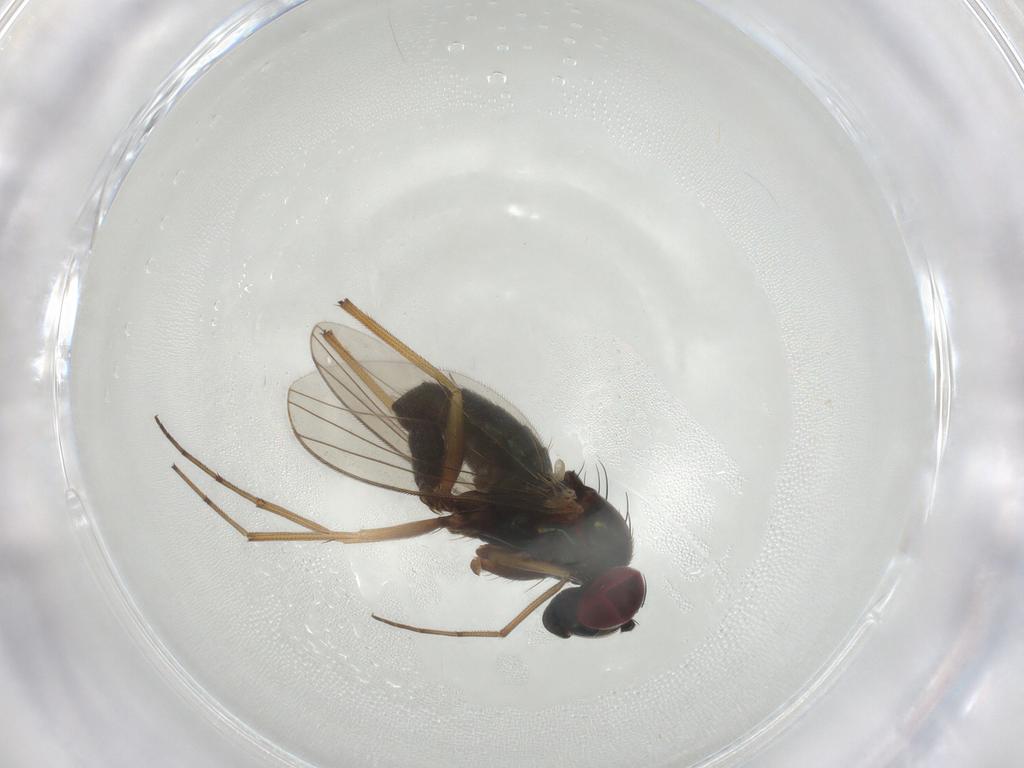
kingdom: Animalia
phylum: Arthropoda
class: Insecta
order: Diptera
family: Dolichopodidae
